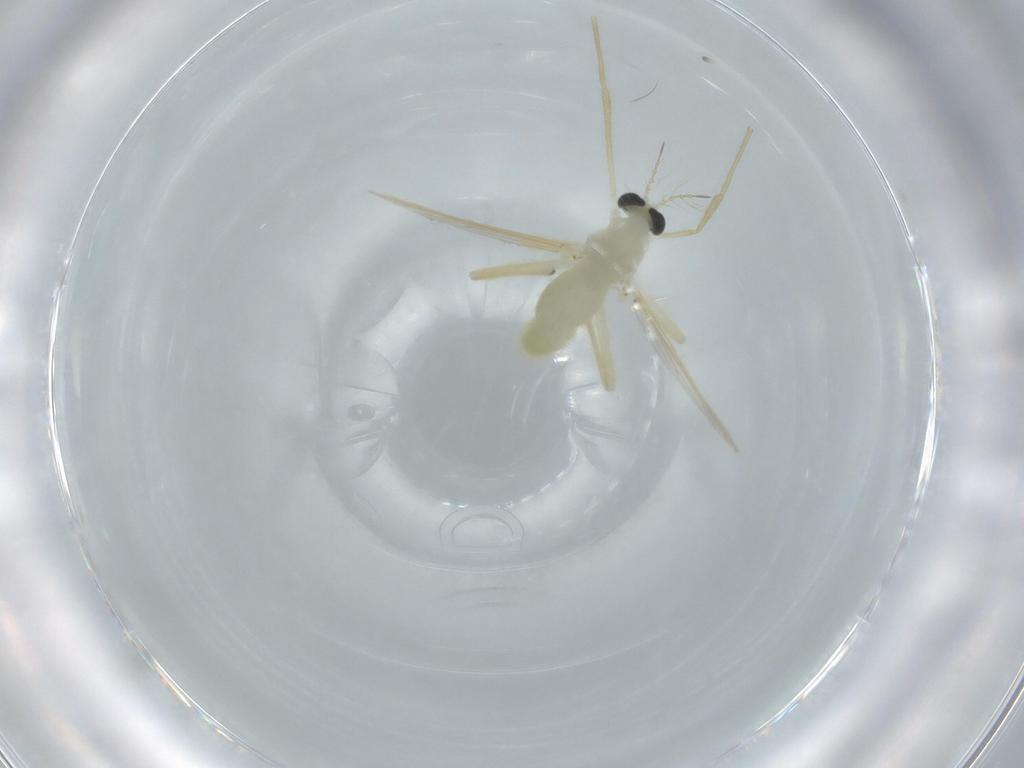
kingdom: Animalia
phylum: Arthropoda
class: Insecta
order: Diptera
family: Chironomidae
